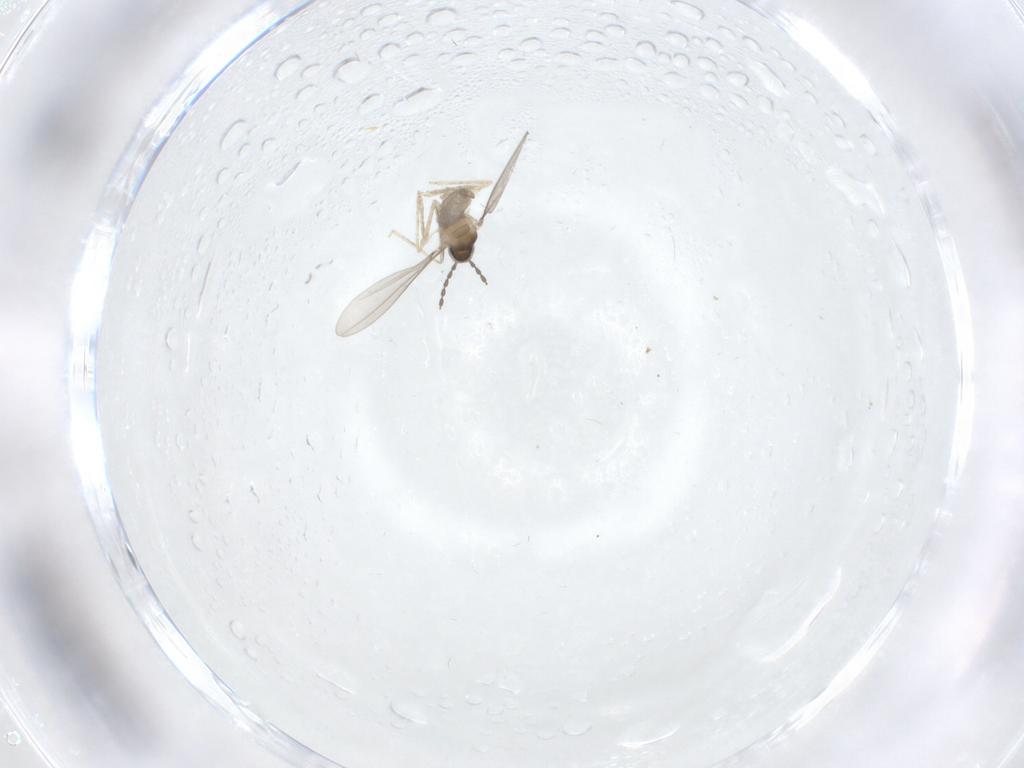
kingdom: Animalia
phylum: Arthropoda
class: Insecta
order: Diptera
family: Cecidomyiidae
